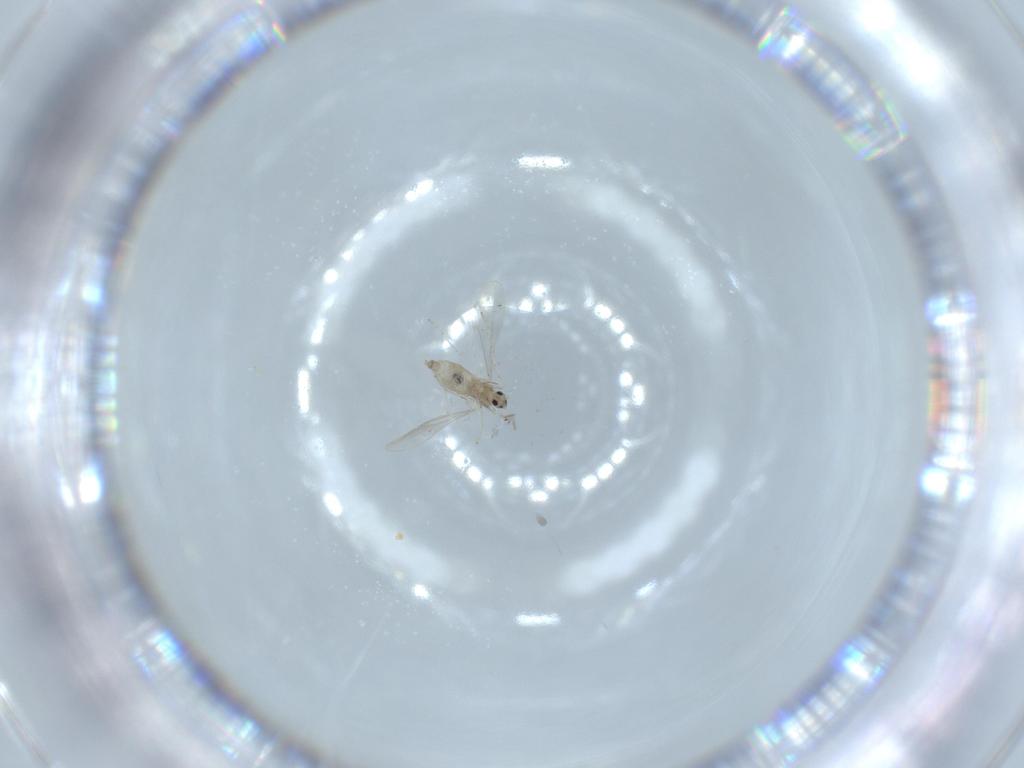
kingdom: Animalia
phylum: Arthropoda
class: Insecta
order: Diptera
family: Cecidomyiidae
